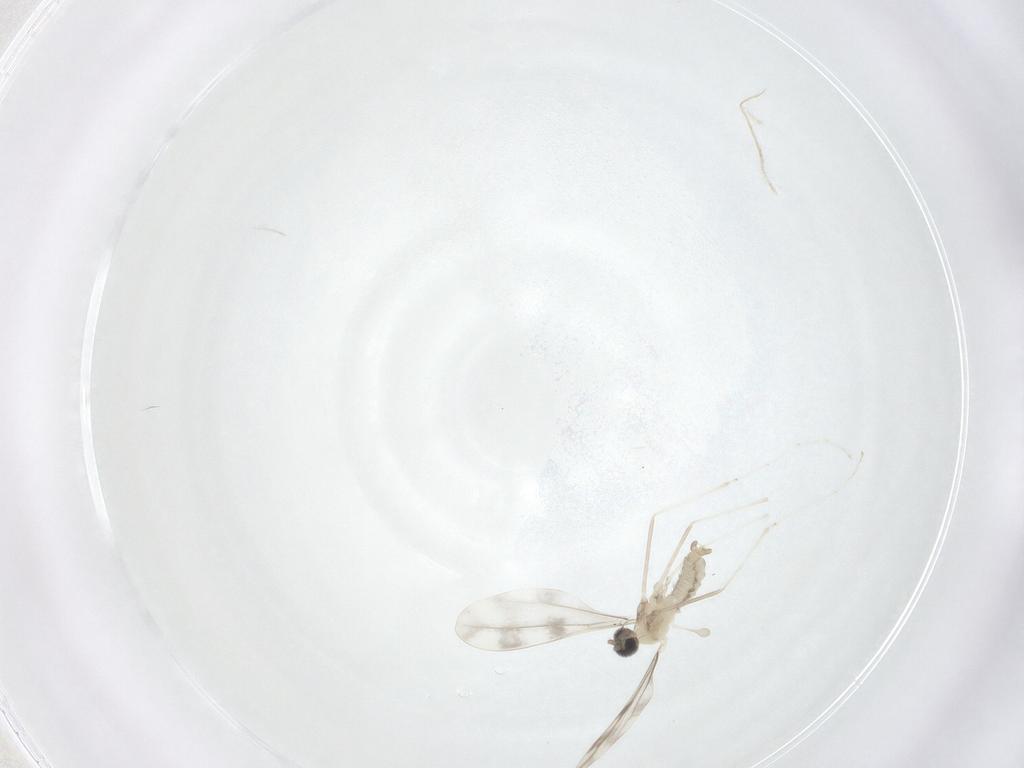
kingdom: Animalia
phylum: Arthropoda
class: Insecta
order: Diptera
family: Cecidomyiidae
